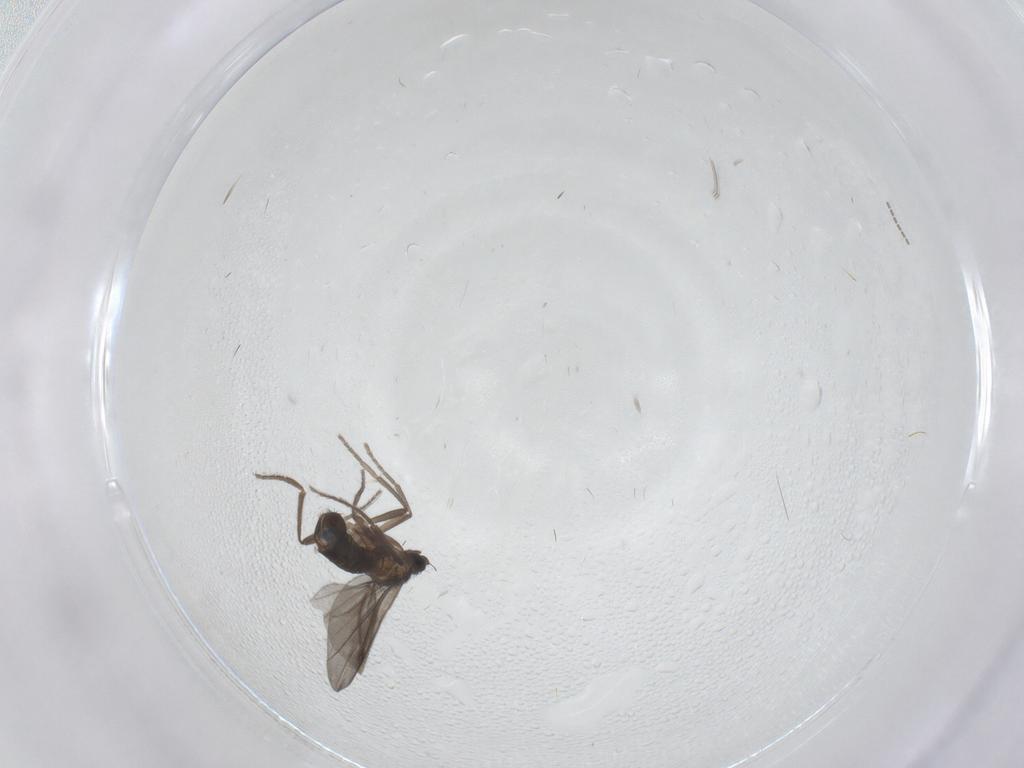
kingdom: Animalia
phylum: Arthropoda
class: Insecta
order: Diptera
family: Phoridae
